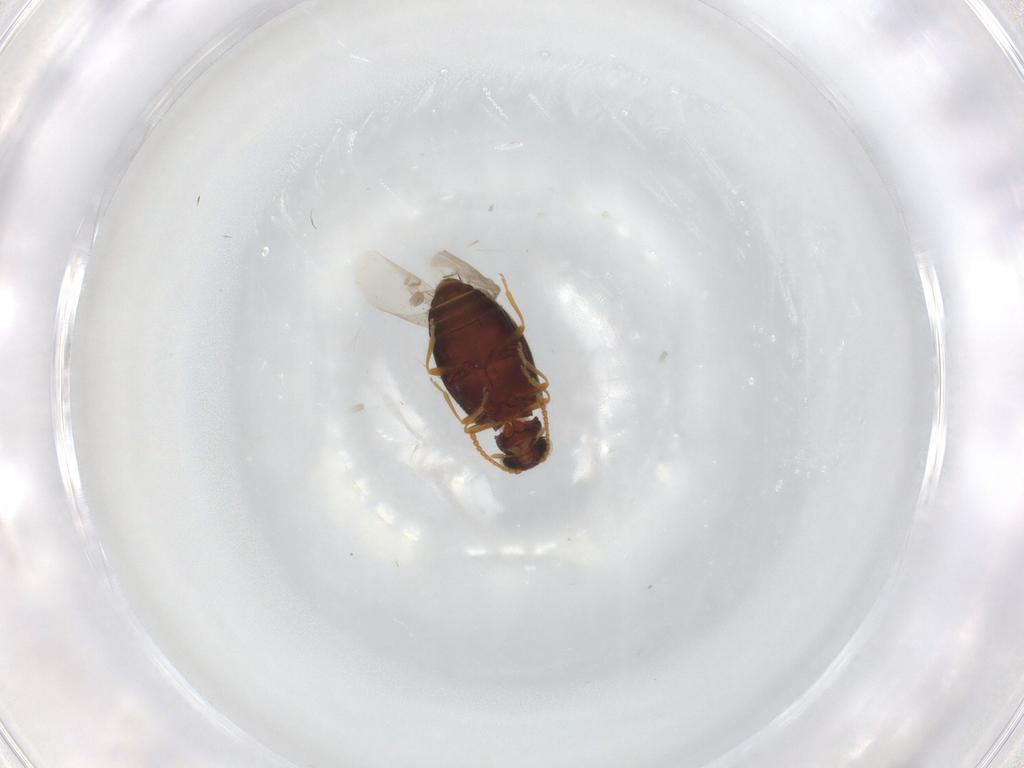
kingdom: Animalia
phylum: Arthropoda
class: Insecta
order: Coleoptera
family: Aderidae
